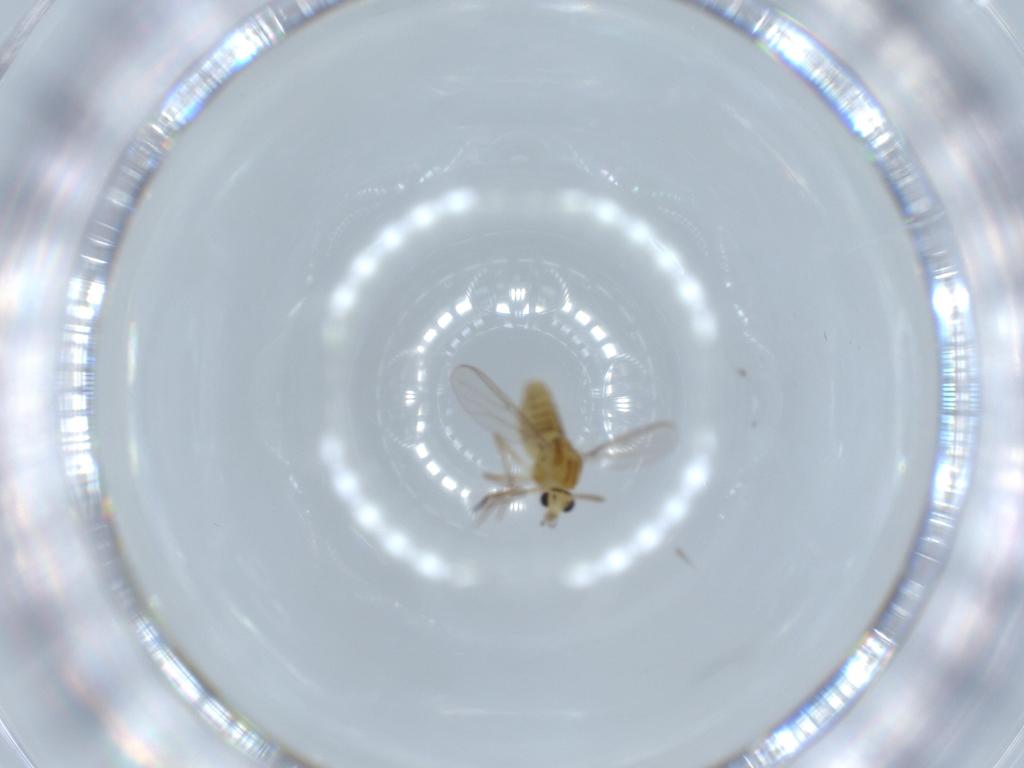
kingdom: Animalia
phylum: Arthropoda
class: Insecta
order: Diptera
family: Chironomidae
